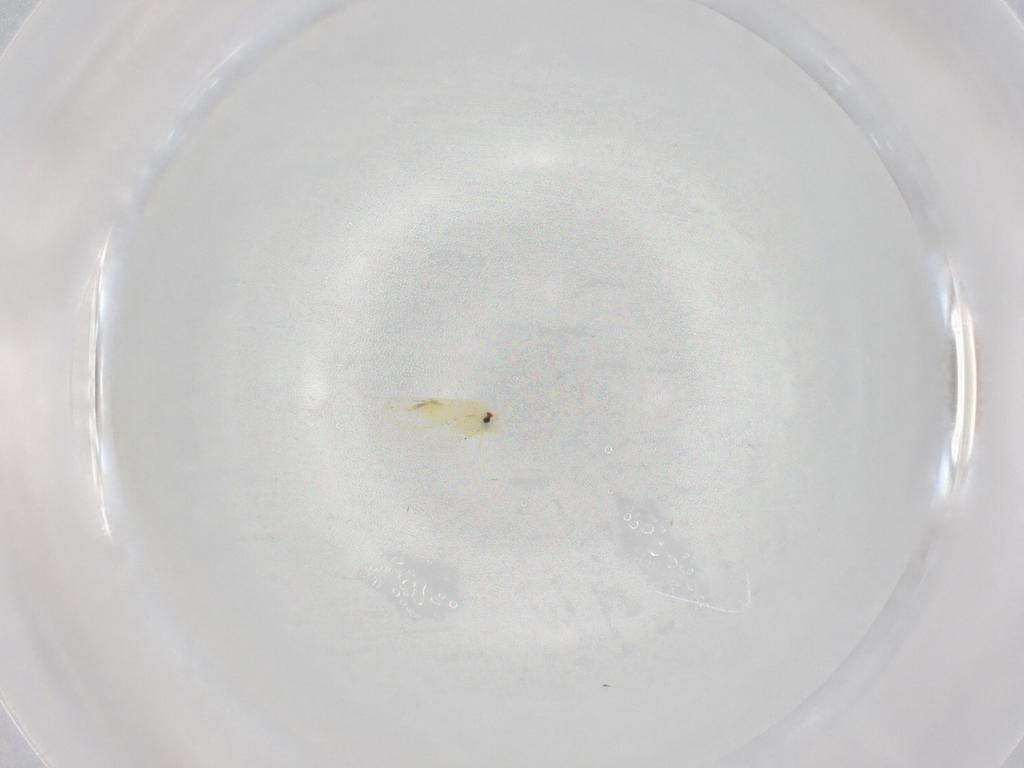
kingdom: Animalia
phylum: Arthropoda
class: Insecta
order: Hemiptera
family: Aleyrodidae
